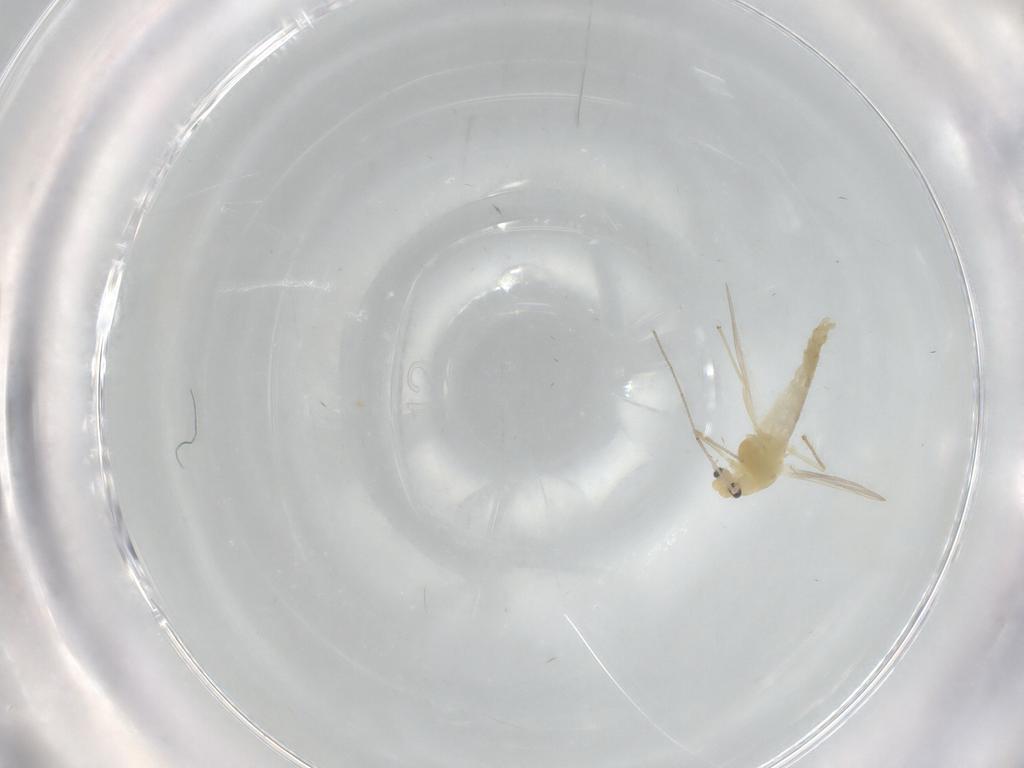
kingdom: Animalia
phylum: Arthropoda
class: Insecta
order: Diptera
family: Chironomidae
